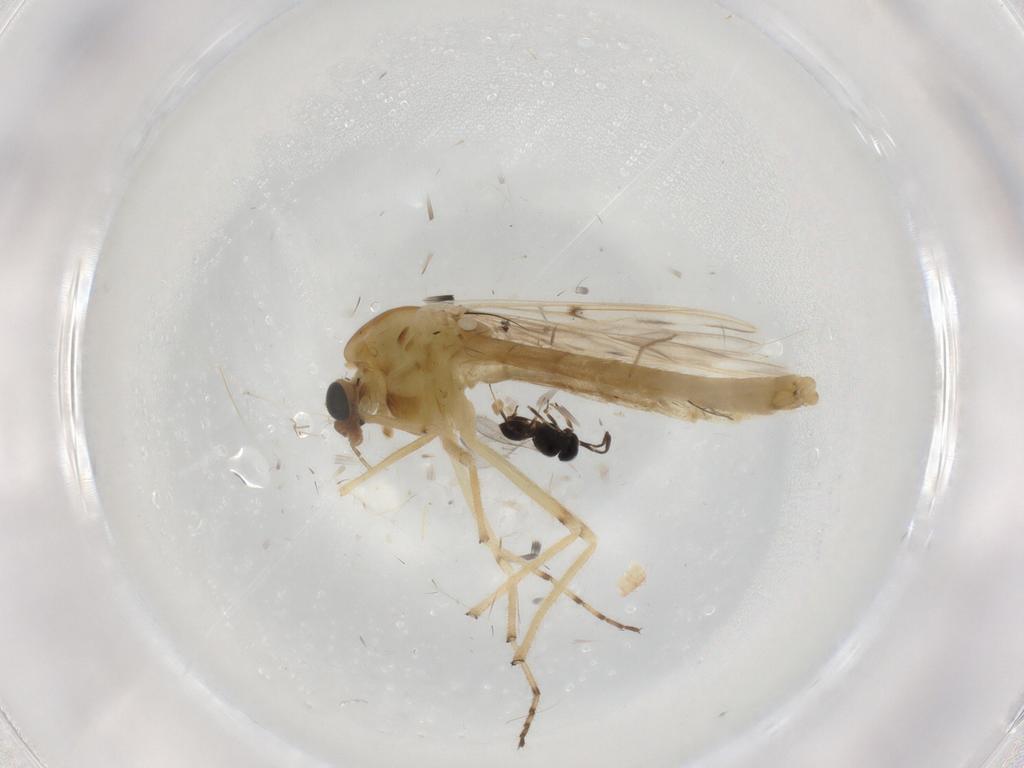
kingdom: Animalia
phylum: Arthropoda
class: Insecta
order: Diptera
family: Chironomidae
